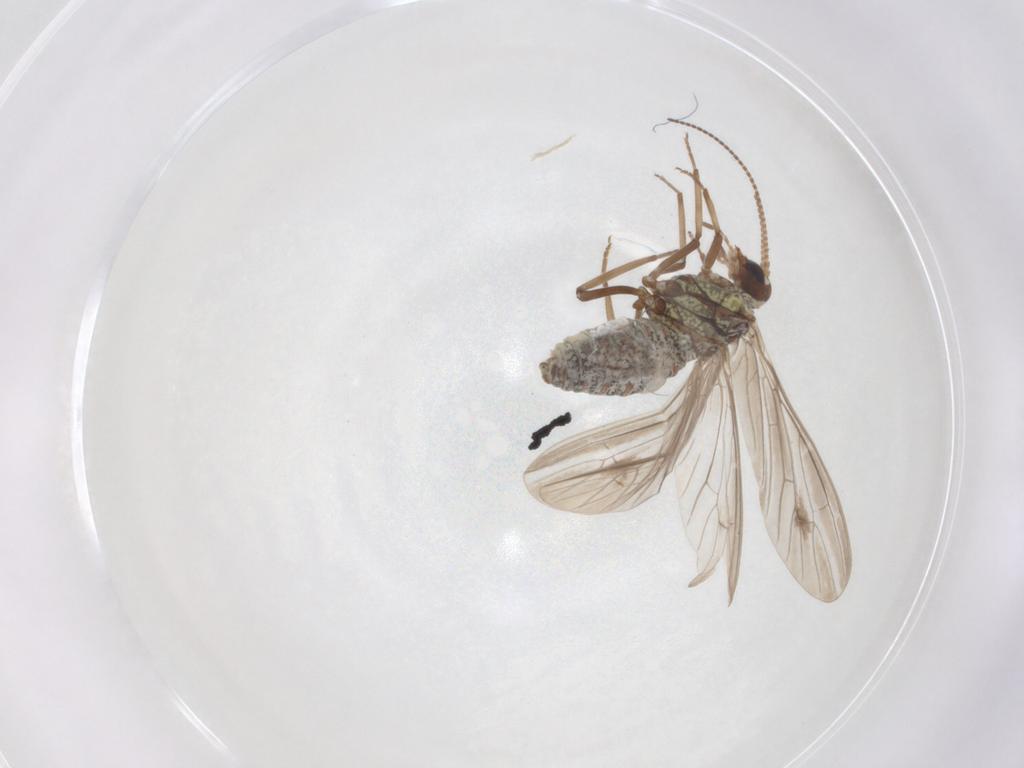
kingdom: Animalia
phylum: Arthropoda
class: Insecta
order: Neuroptera
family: Coniopterygidae
